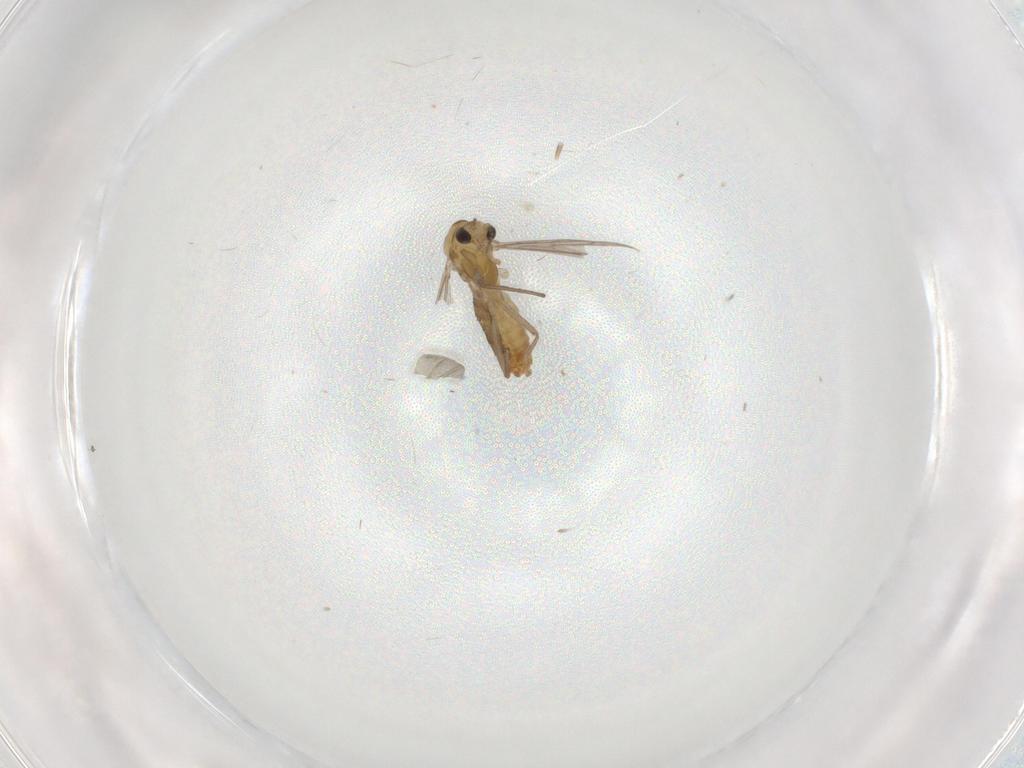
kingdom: Animalia
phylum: Arthropoda
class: Insecta
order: Diptera
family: Chironomidae
